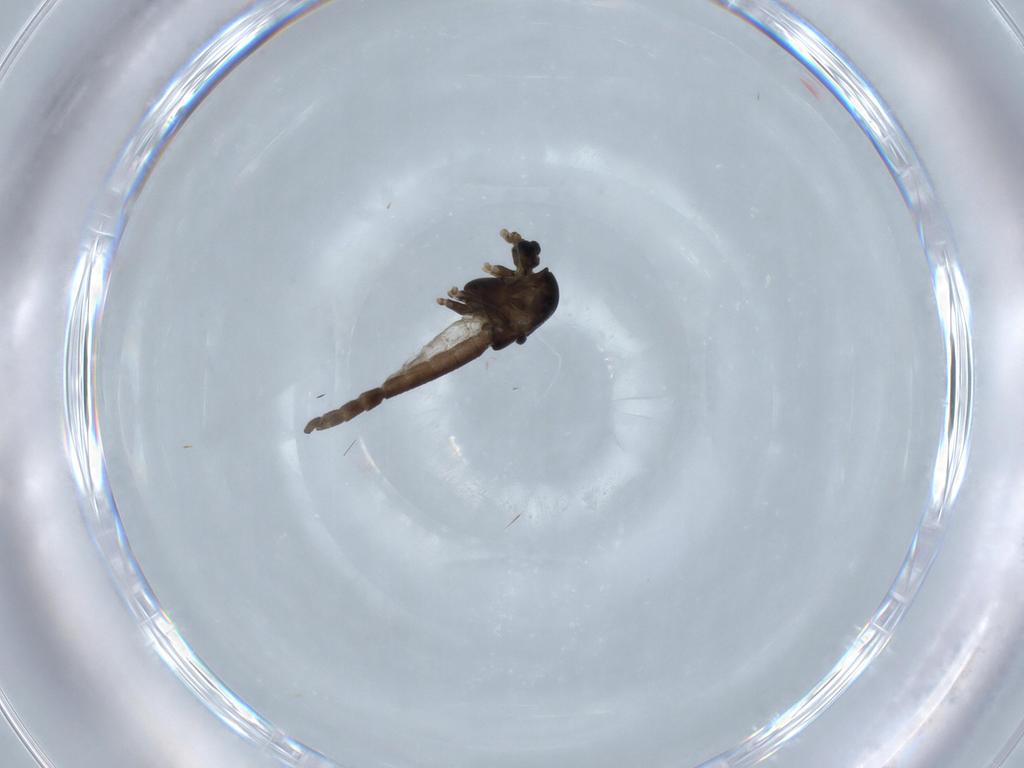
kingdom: Animalia
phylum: Arthropoda
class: Insecta
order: Diptera
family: Chironomidae
